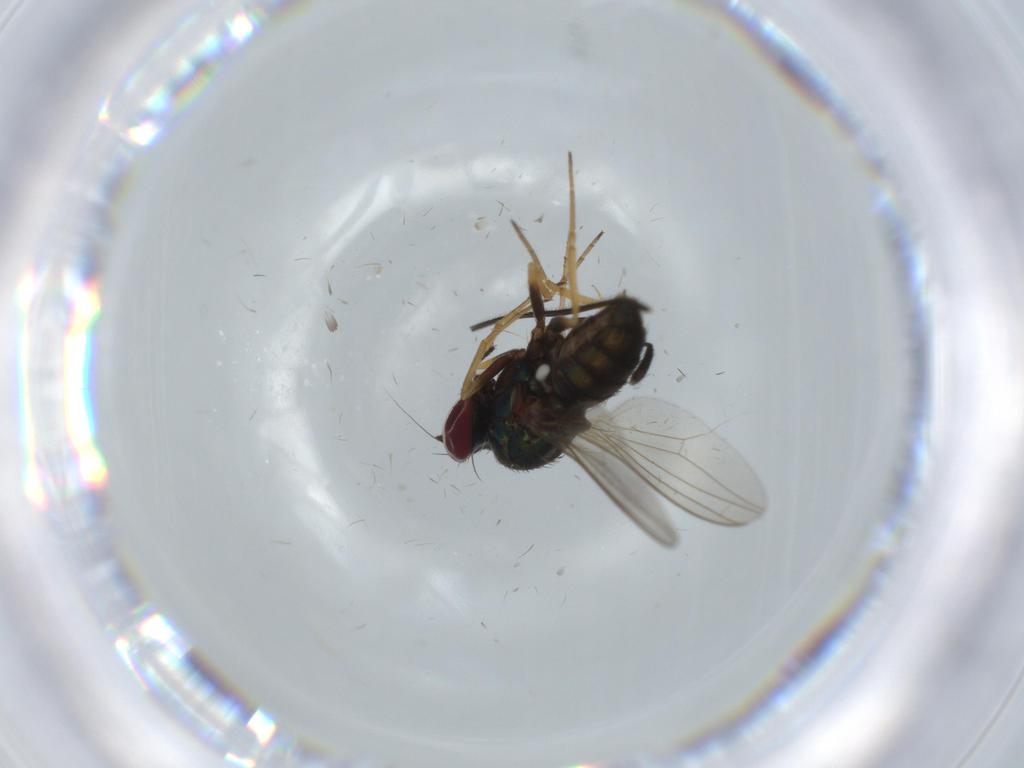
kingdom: Animalia
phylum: Arthropoda
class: Insecta
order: Diptera
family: Dolichopodidae
